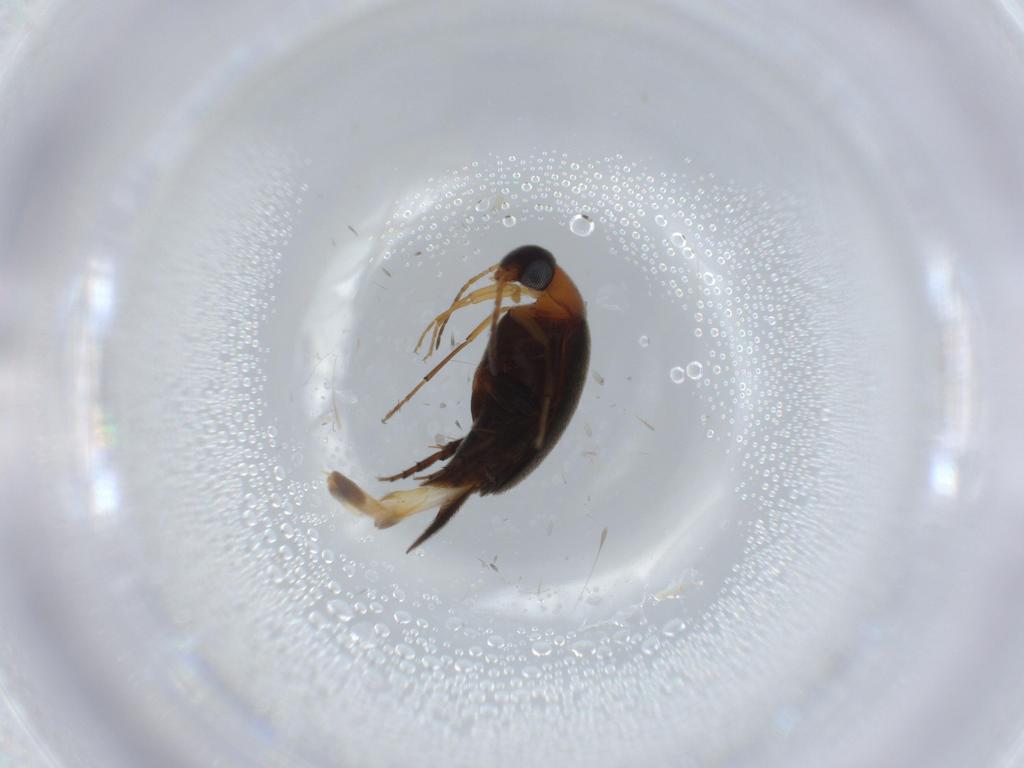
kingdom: Animalia
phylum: Arthropoda
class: Insecta
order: Coleoptera
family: Mordellidae
